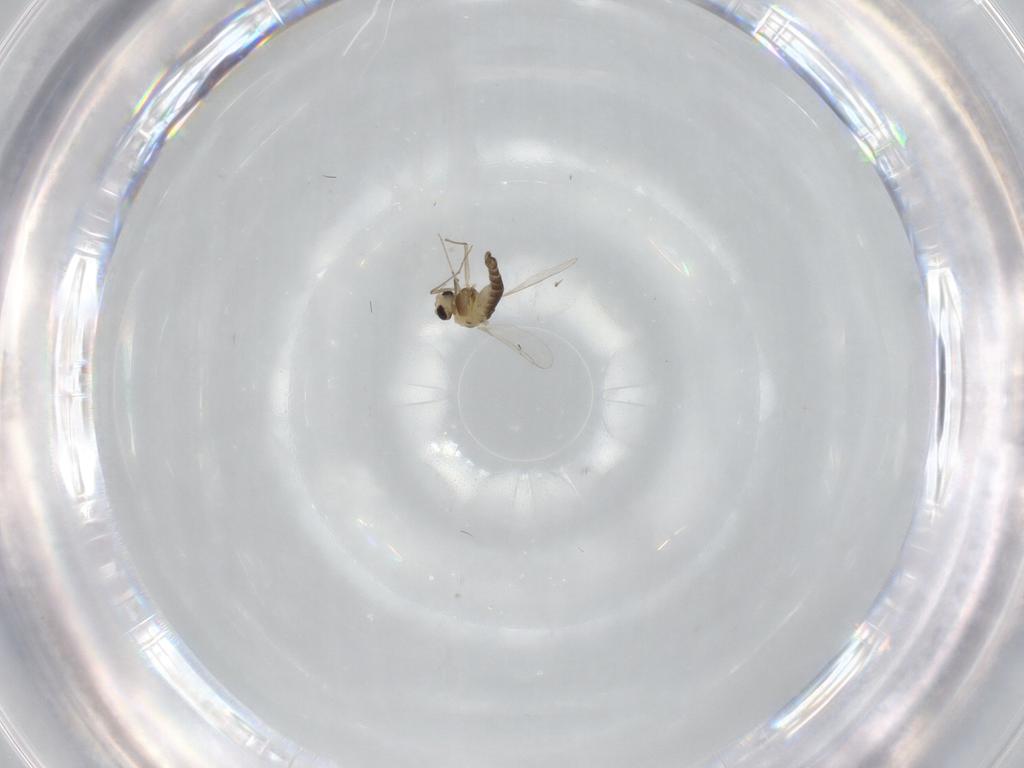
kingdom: Animalia
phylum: Arthropoda
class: Insecta
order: Diptera
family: Chironomidae
